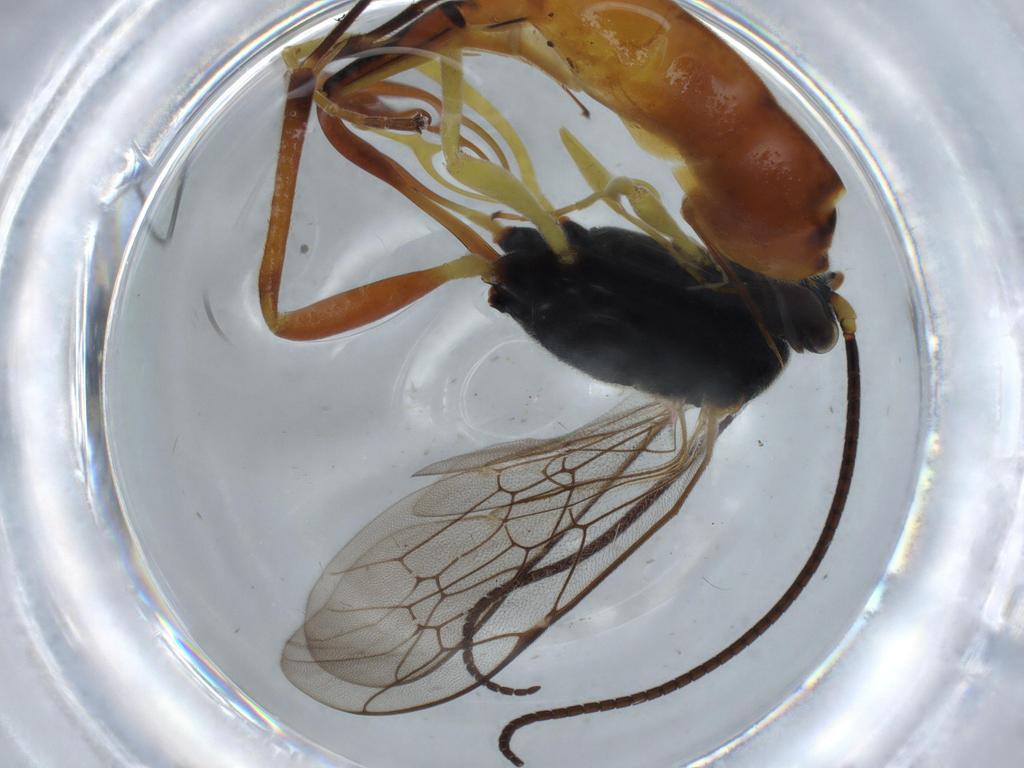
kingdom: Animalia
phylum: Arthropoda
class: Insecta
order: Hymenoptera
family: Ichneumonidae
